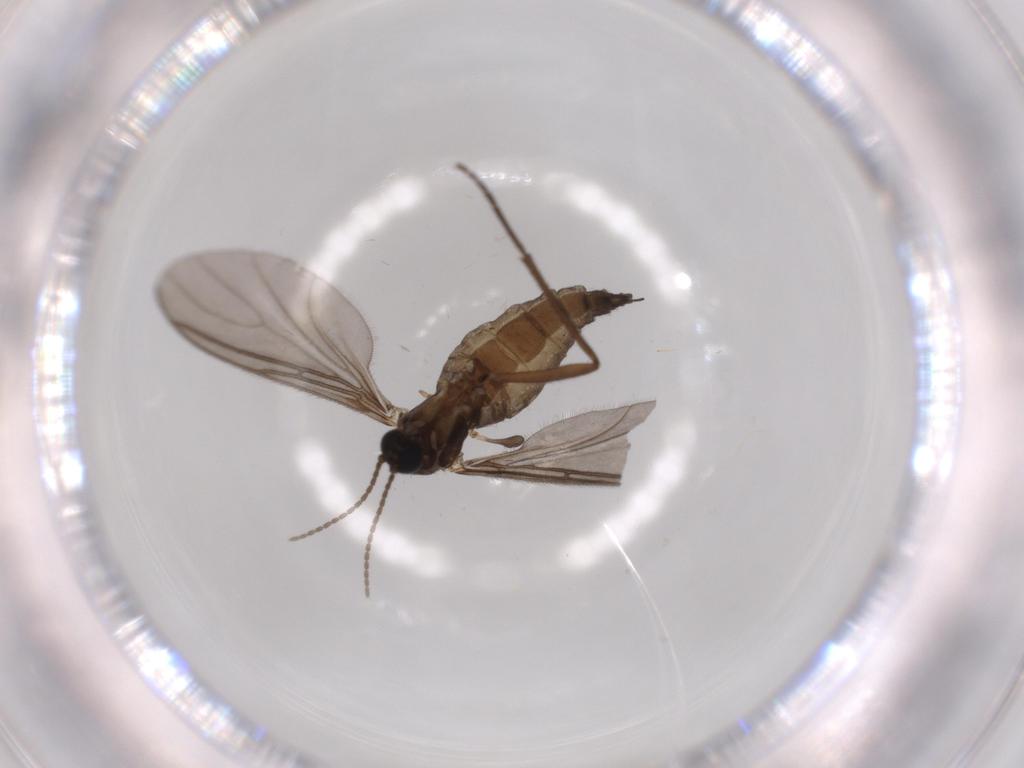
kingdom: Animalia
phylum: Arthropoda
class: Insecta
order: Diptera
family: Sciaridae
